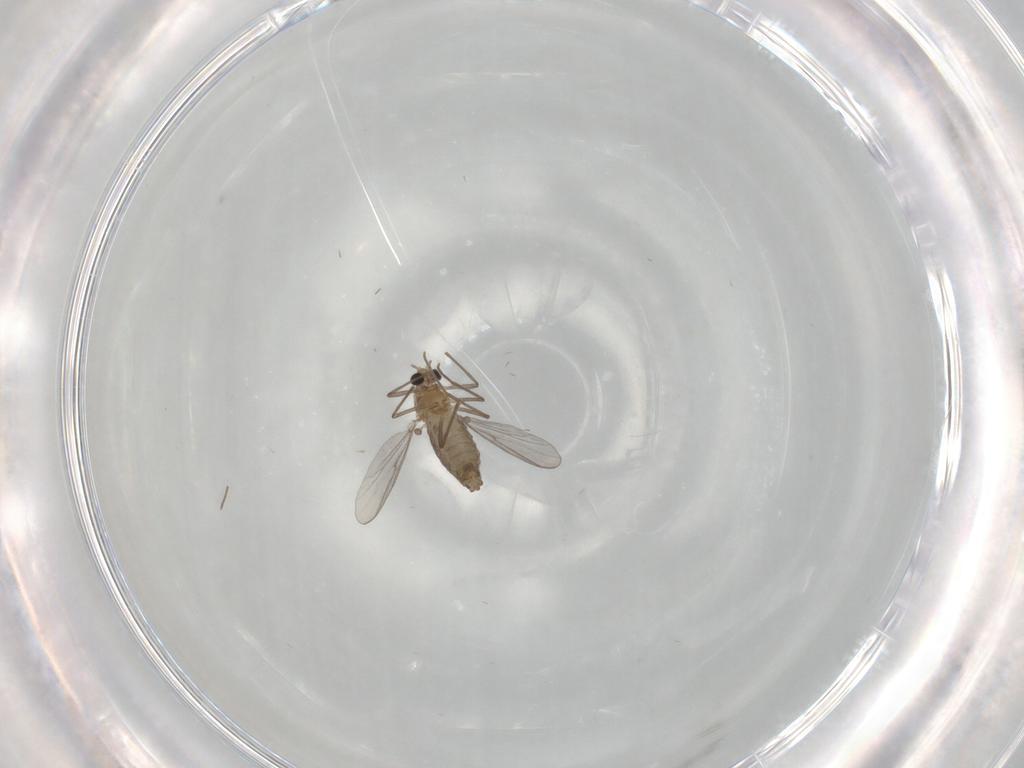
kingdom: Animalia
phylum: Arthropoda
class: Insecta
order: Diptera
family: Chironomidae
